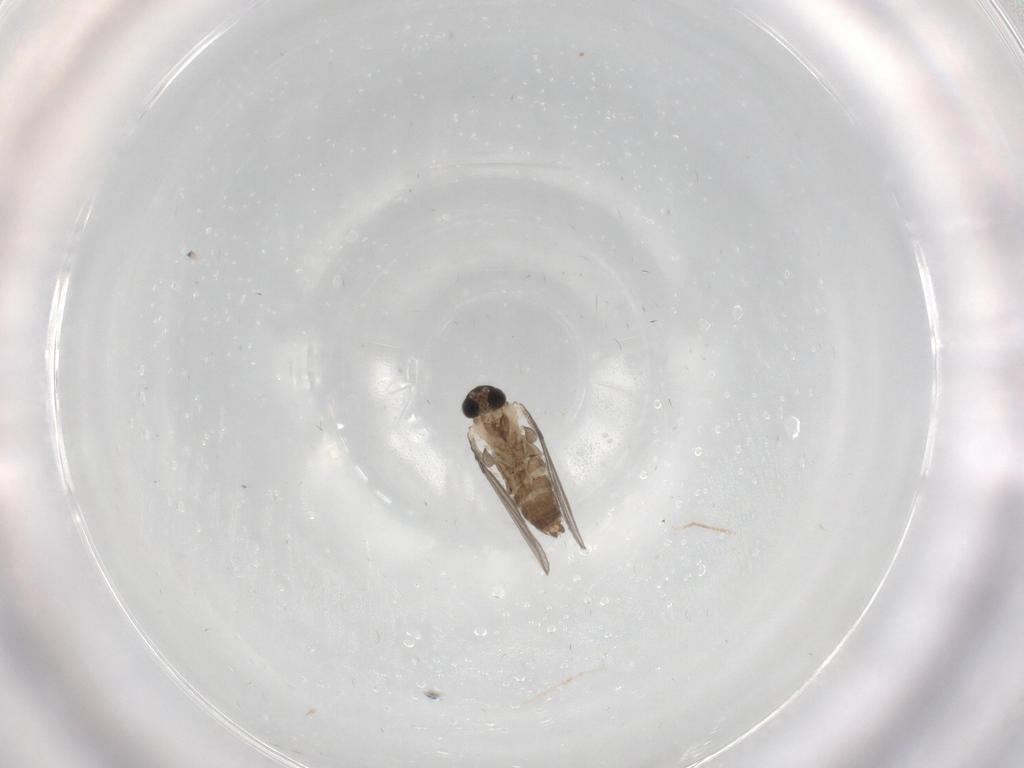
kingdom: Animalia
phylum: Arthropoda
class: Insecta
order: Diptera
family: Psychodidae
